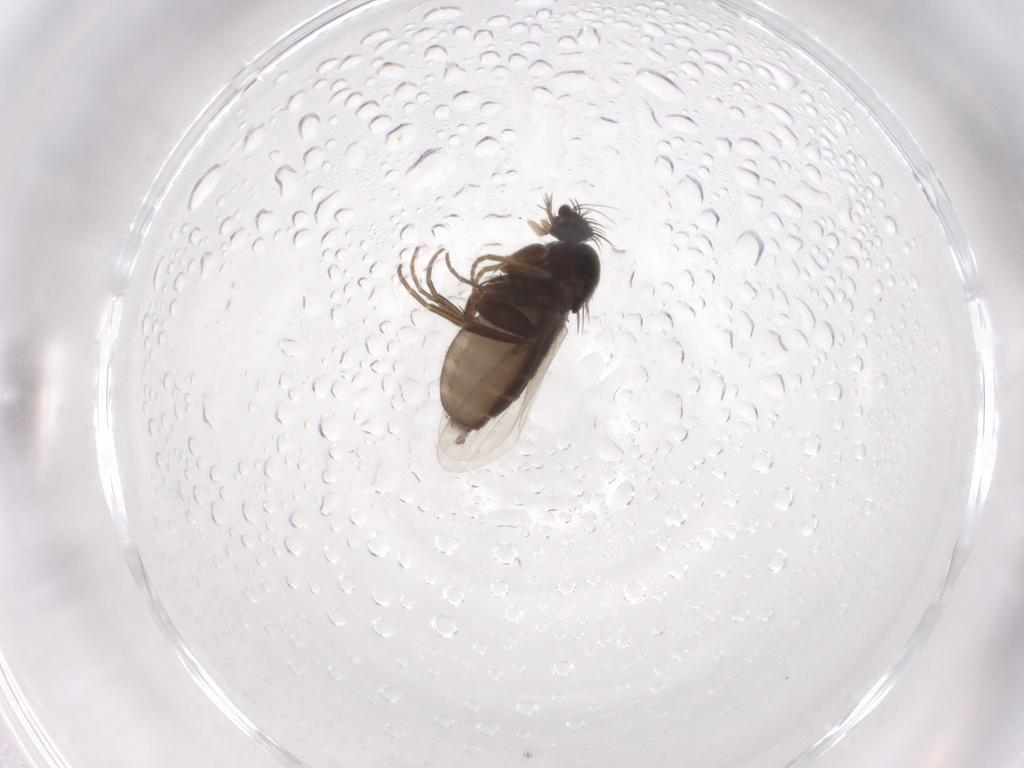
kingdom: Animalia
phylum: Arthropoda
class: Insecta
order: Diptera
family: Phoridae
